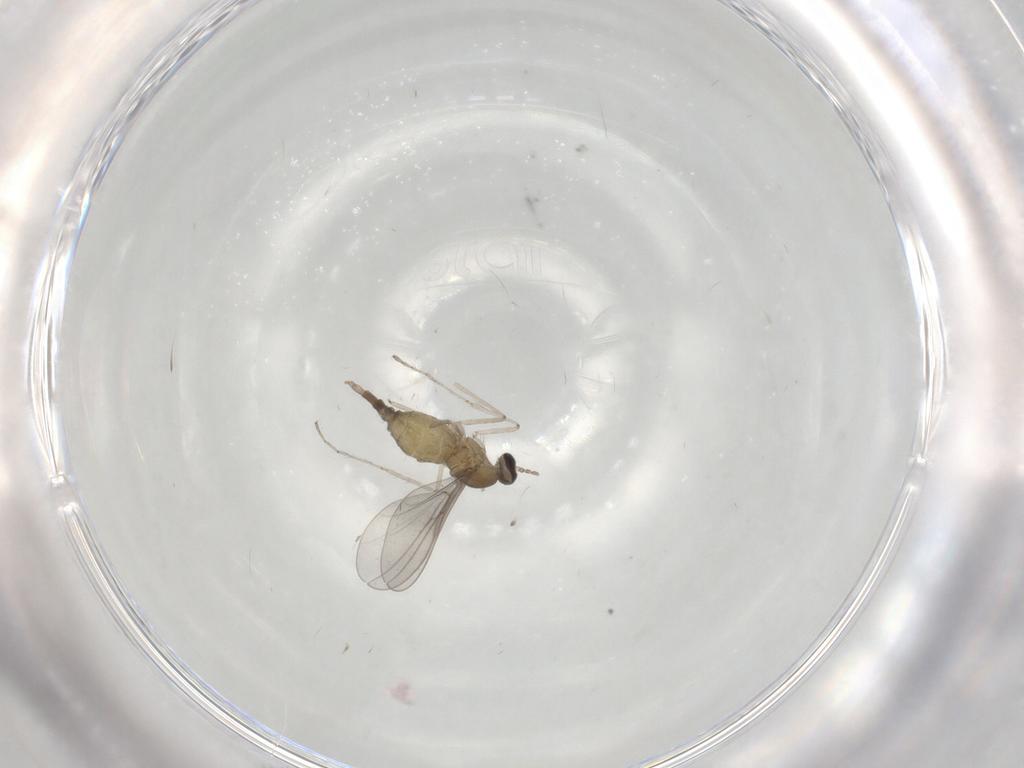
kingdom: Animalia
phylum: Arthropoda
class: Insecta
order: Diptera
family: Cecidomyiidae
